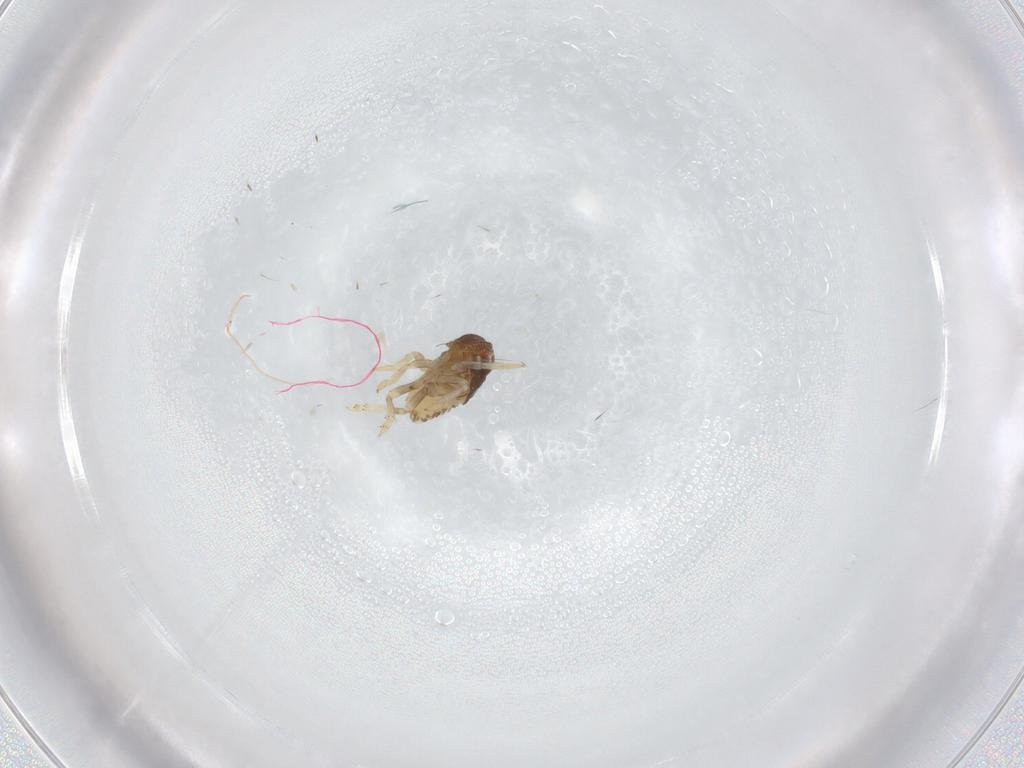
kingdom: Animalia
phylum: Arthropoda
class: Insecta
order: Hemiptera
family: Acanaloniidae
